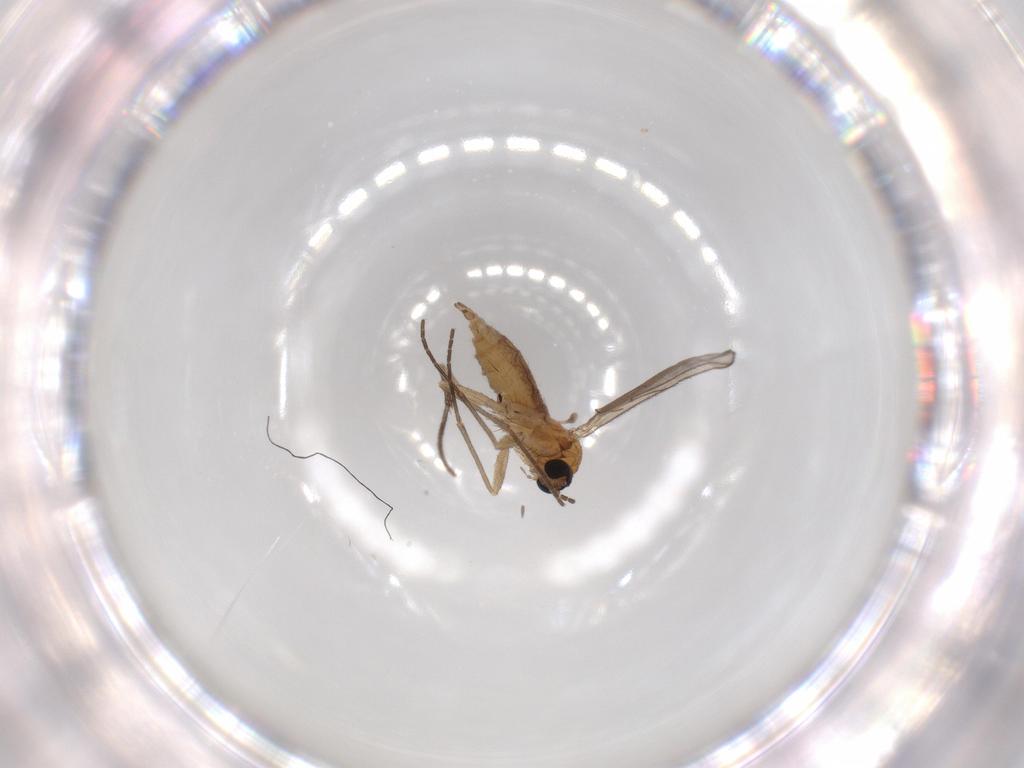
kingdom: Animalia
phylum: Arthropoda
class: Insecta
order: Diptera
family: Sciaridae
